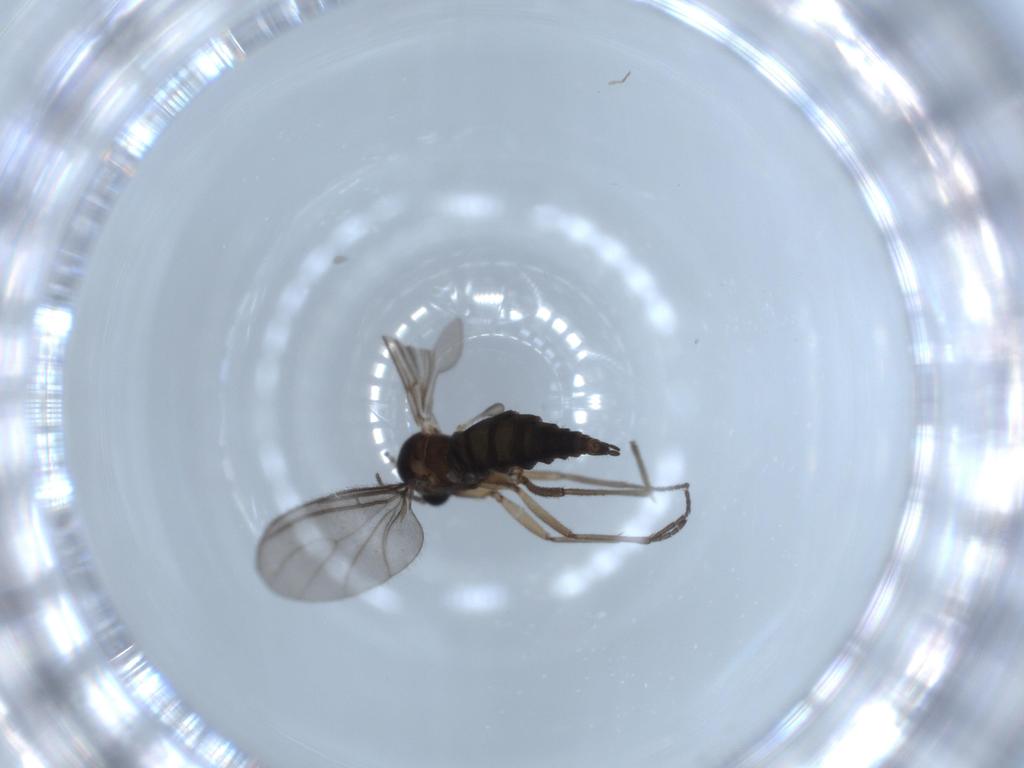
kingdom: Animalia
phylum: Arthropoda
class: Insecta
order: Diptera
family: Sciaridae
